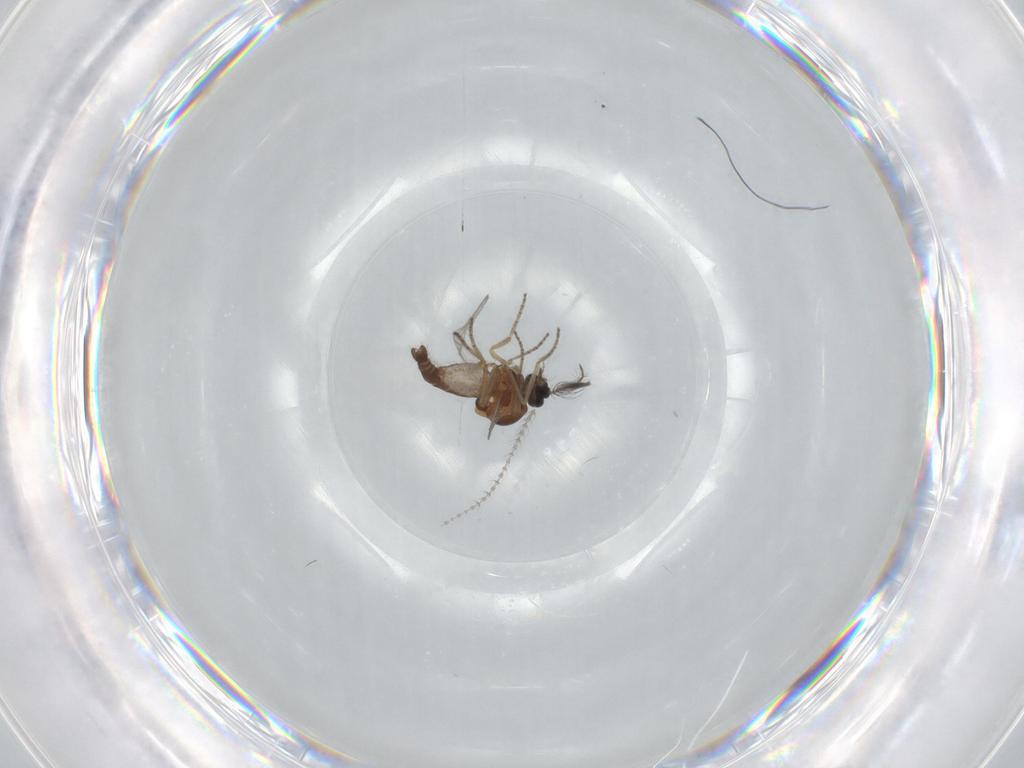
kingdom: Animalia
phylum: Arthropoda
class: Insecta
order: Diptera
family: Ceratopogonidae
